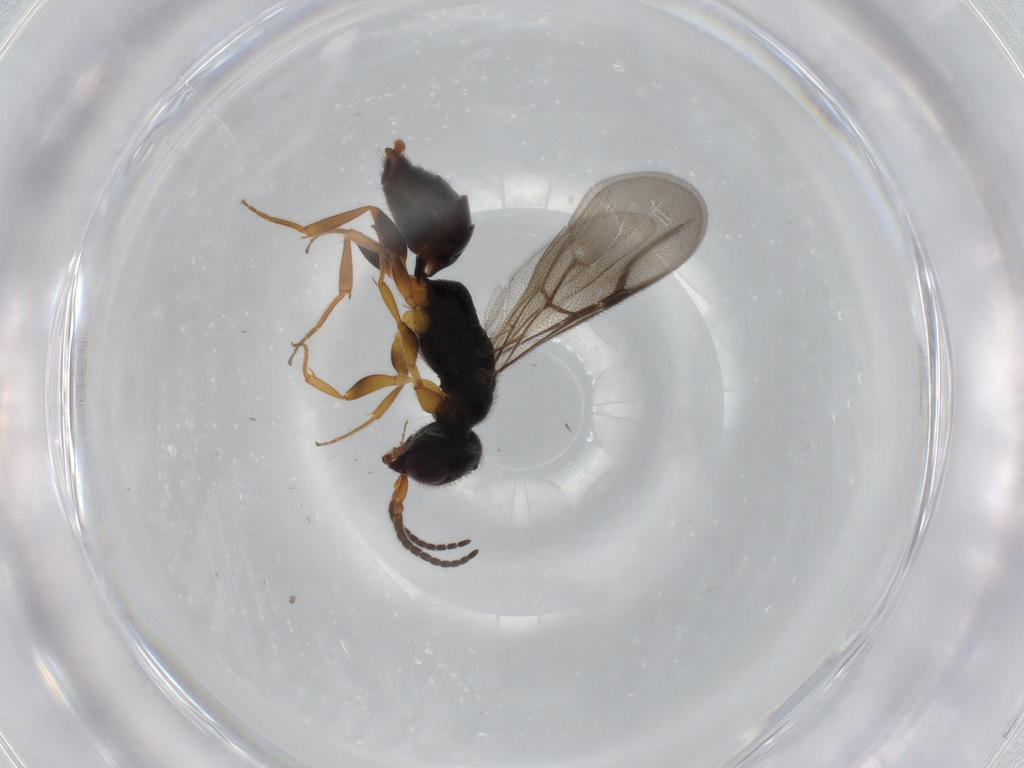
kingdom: Animalia
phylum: Arthropoda
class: Insecta
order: Hymenoptera
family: Bethylidae
